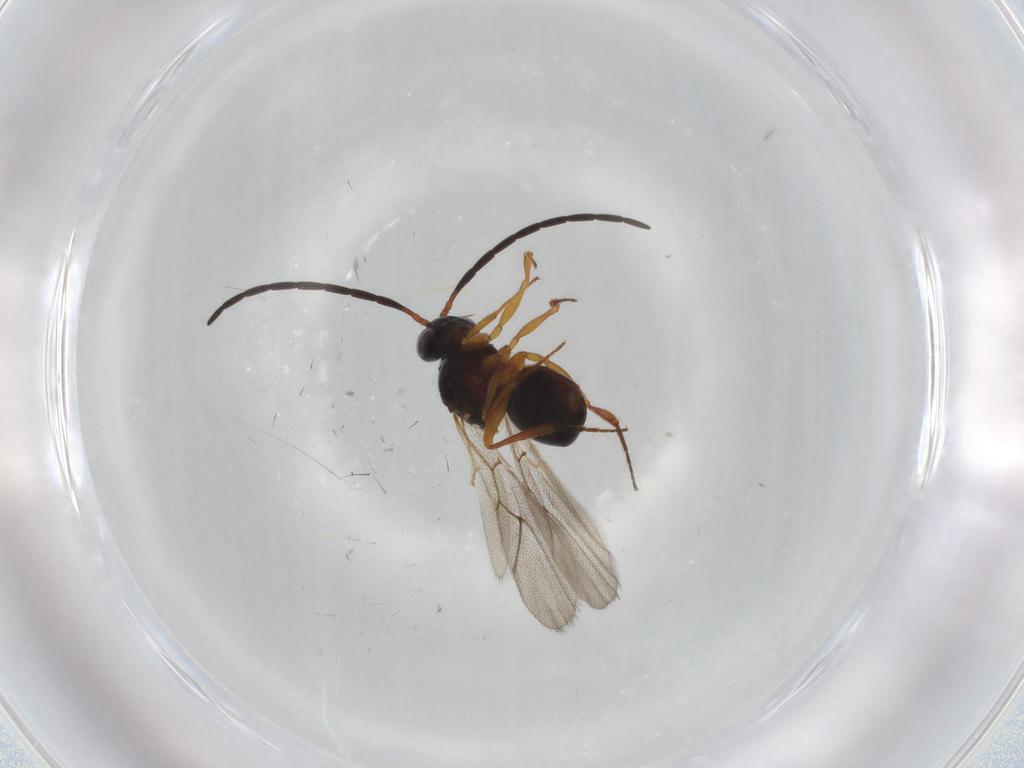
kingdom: Animalia
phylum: Arthropoda
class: Insecta
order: Hymenoptera
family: Figitidae
